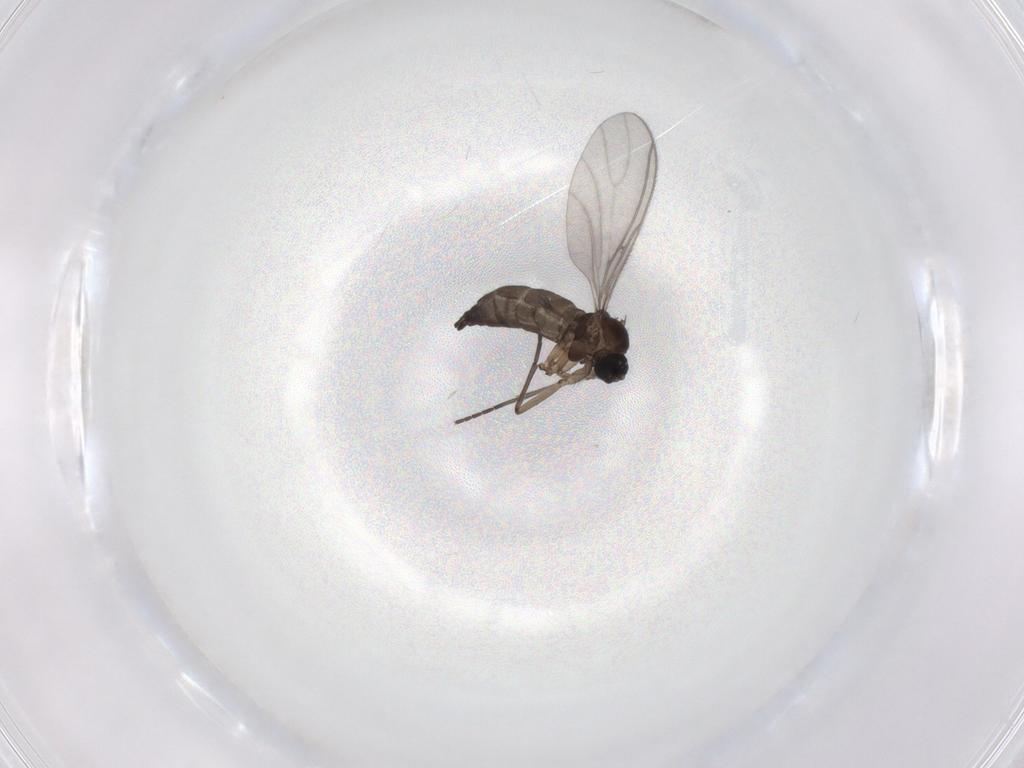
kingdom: Animalia
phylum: Arthropoda
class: Insecta
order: Diptera
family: Sciaridae
